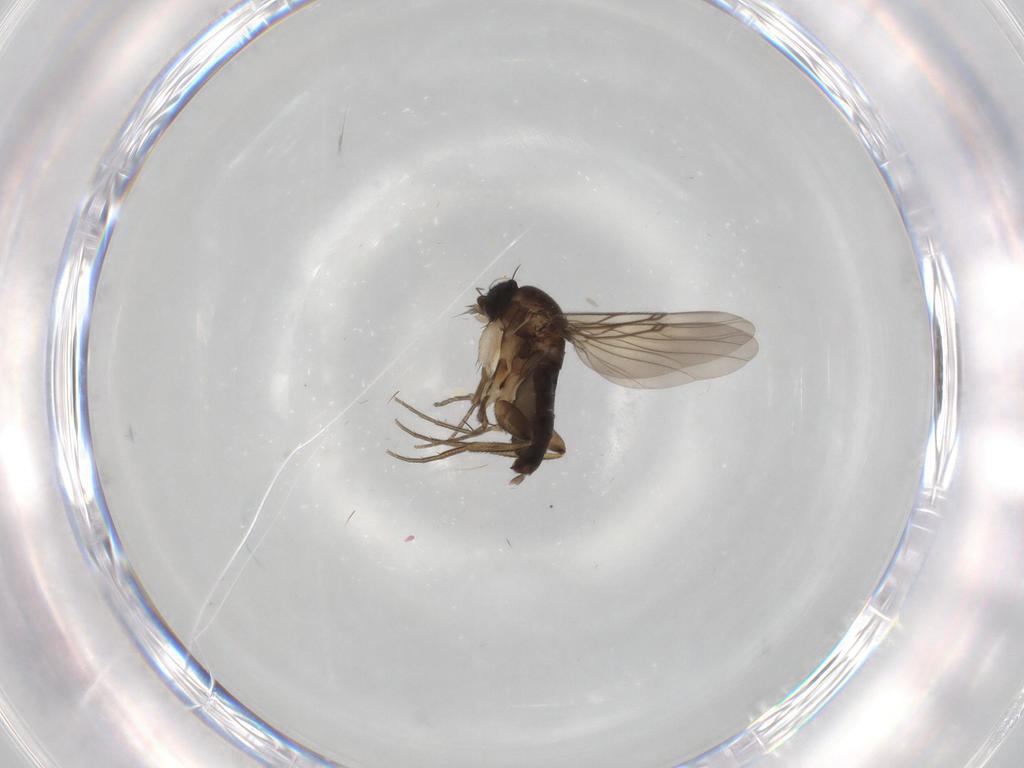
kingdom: Animalia
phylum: Arthropoda
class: Insecta
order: Diptera
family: Phoridae
